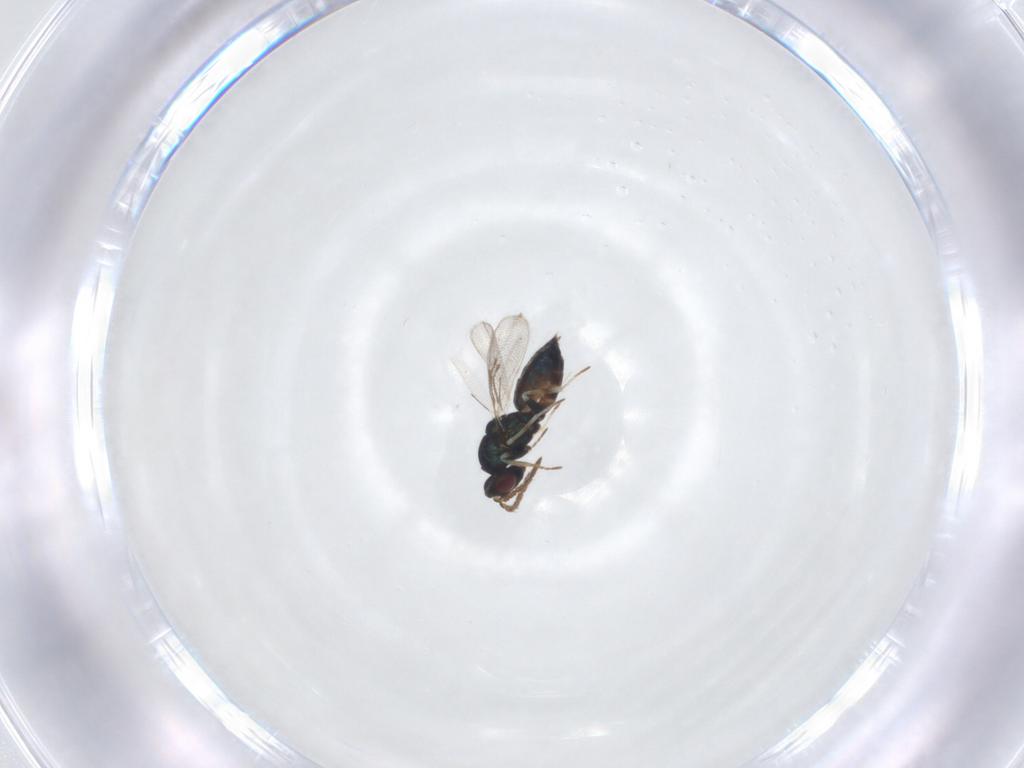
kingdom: Animalia
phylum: Arthropoda
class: Insecta
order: Hymenoptera
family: Eulophidae
